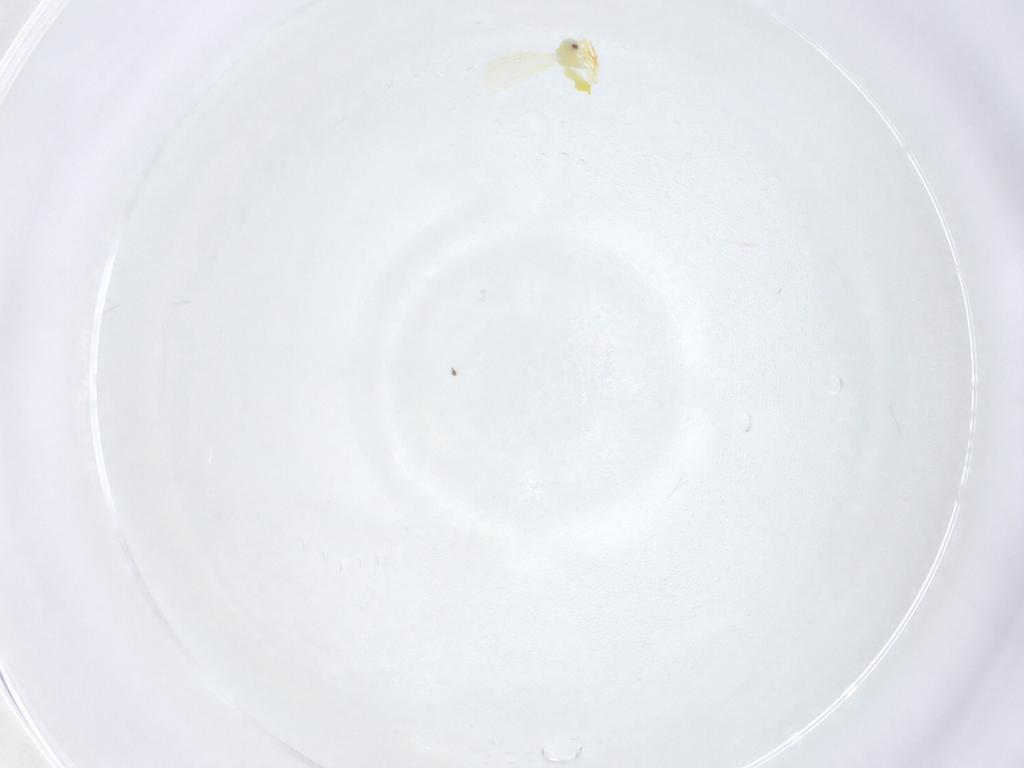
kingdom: Animalia
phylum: Arthropoda
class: Insecta
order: Hemiptera
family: Aleyrodidae
